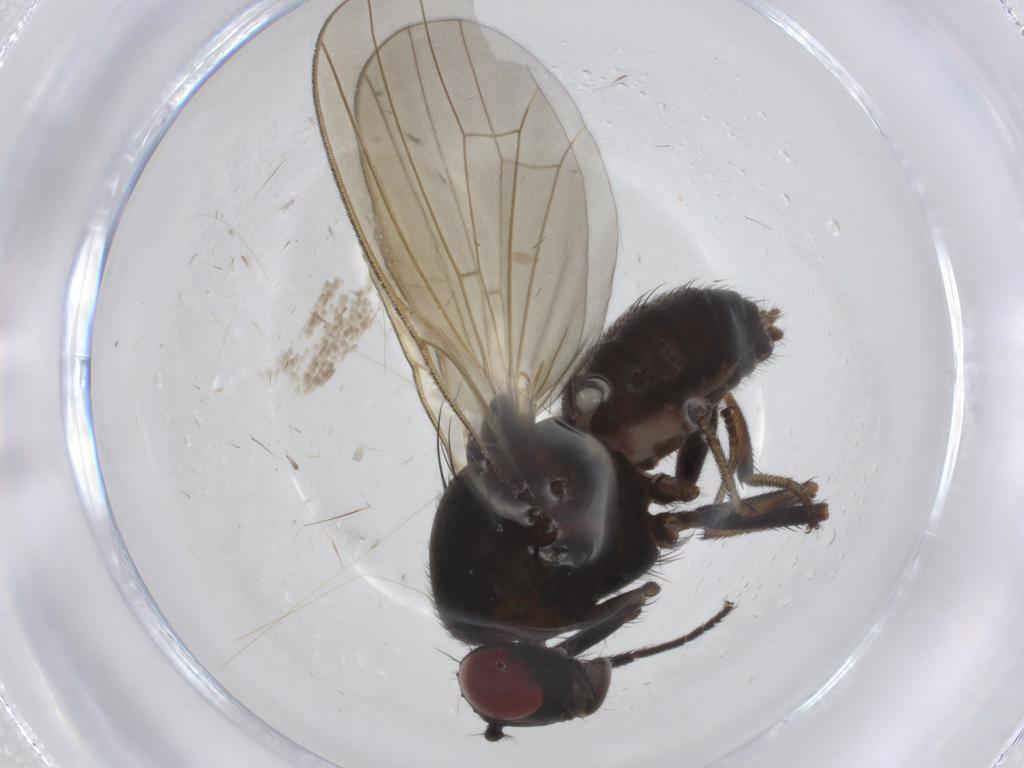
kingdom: Animalia
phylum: Arthropoda
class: Insecta
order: Diptera
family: Lauxaniidae
